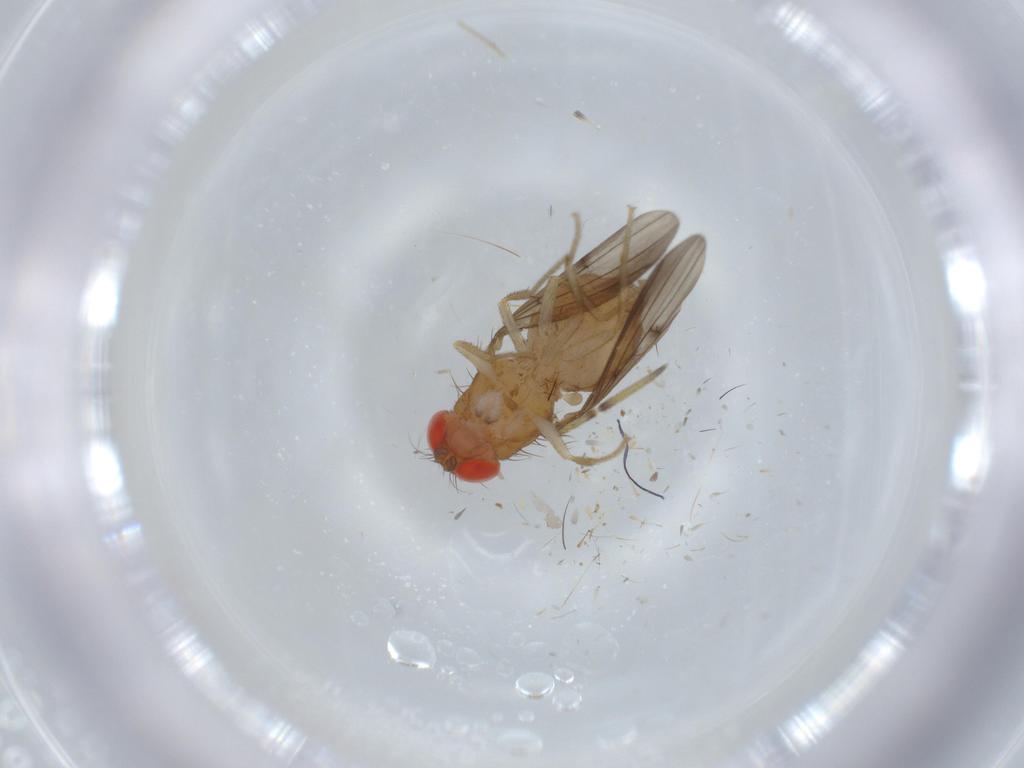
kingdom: Animalia
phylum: Arthropoda
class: Insecta
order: Diptera
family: Drosophilidae
